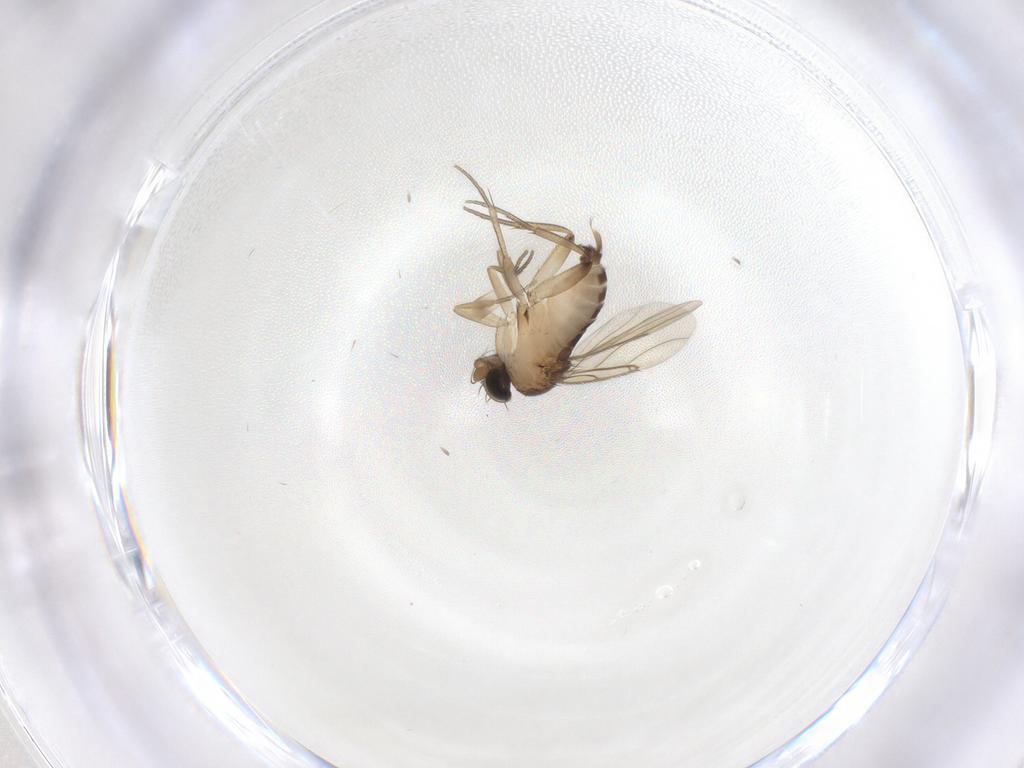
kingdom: Animalia
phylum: Arthropoda
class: Insecta
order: Diptera
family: Phoridae
